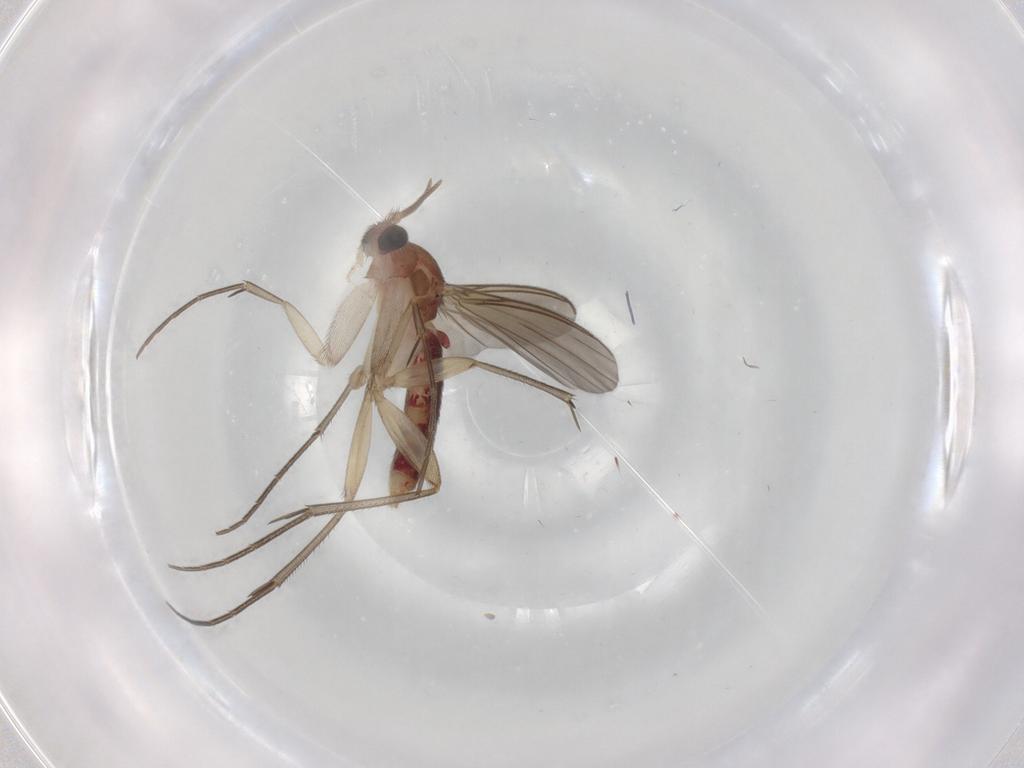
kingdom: Animalia
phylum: Arthropoda
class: Insecta
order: Diptera
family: Mycetophilidae
